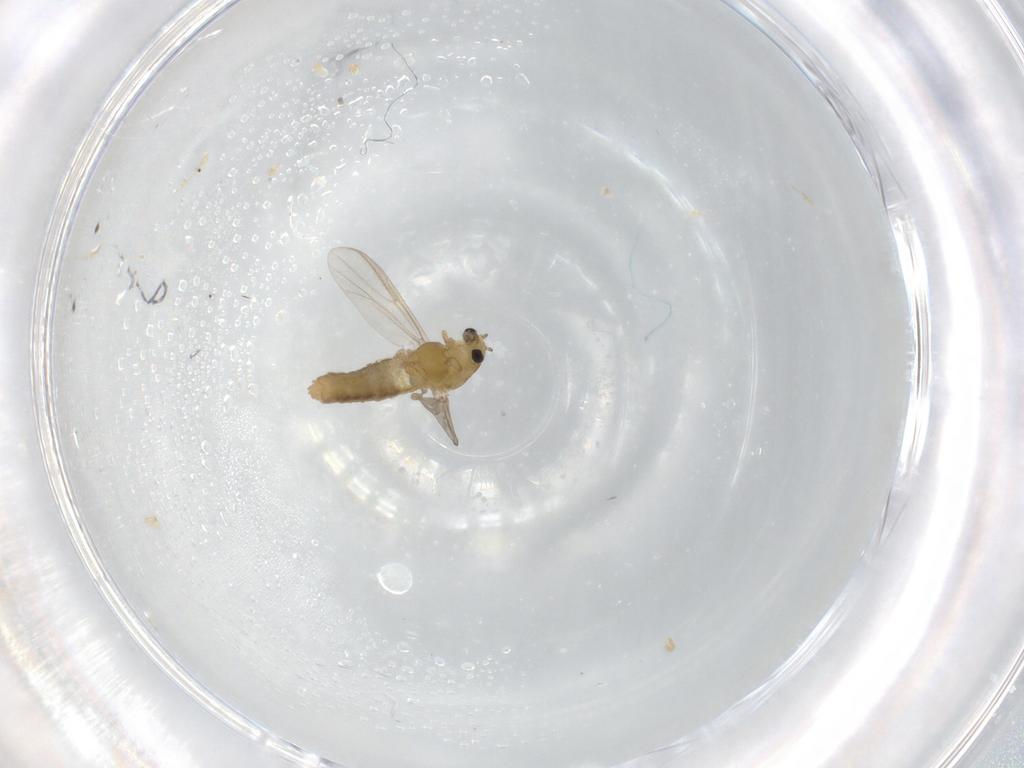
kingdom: Animalia
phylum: Arthropoda
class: Insecta
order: Diptera
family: Chironomidae
